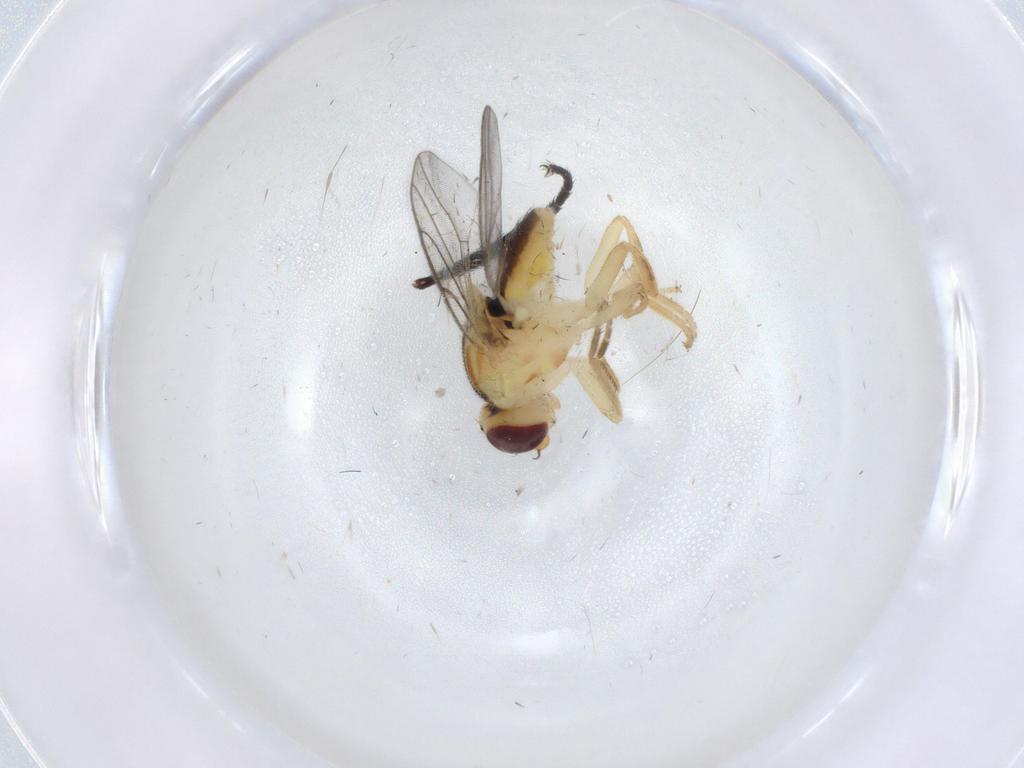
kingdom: Animalia
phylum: Arthropoda
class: Insecta
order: Diptera
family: Chloropidae
